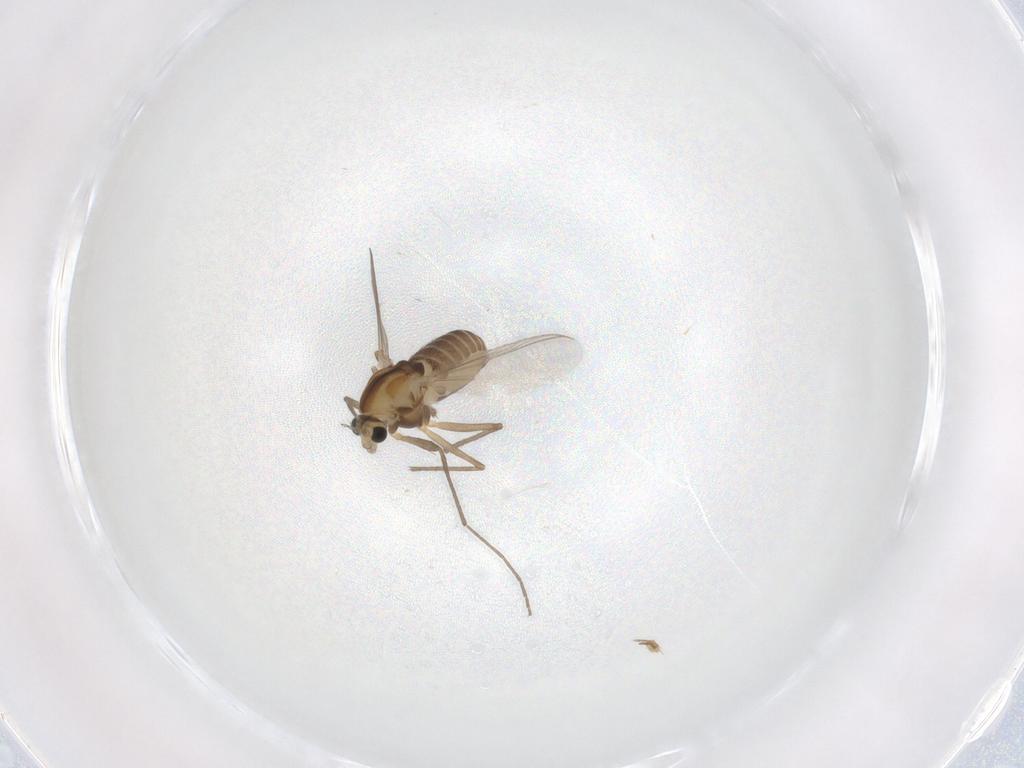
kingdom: Animalia
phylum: Arthropoda
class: Insecta
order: Diptera
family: Chironomidae
